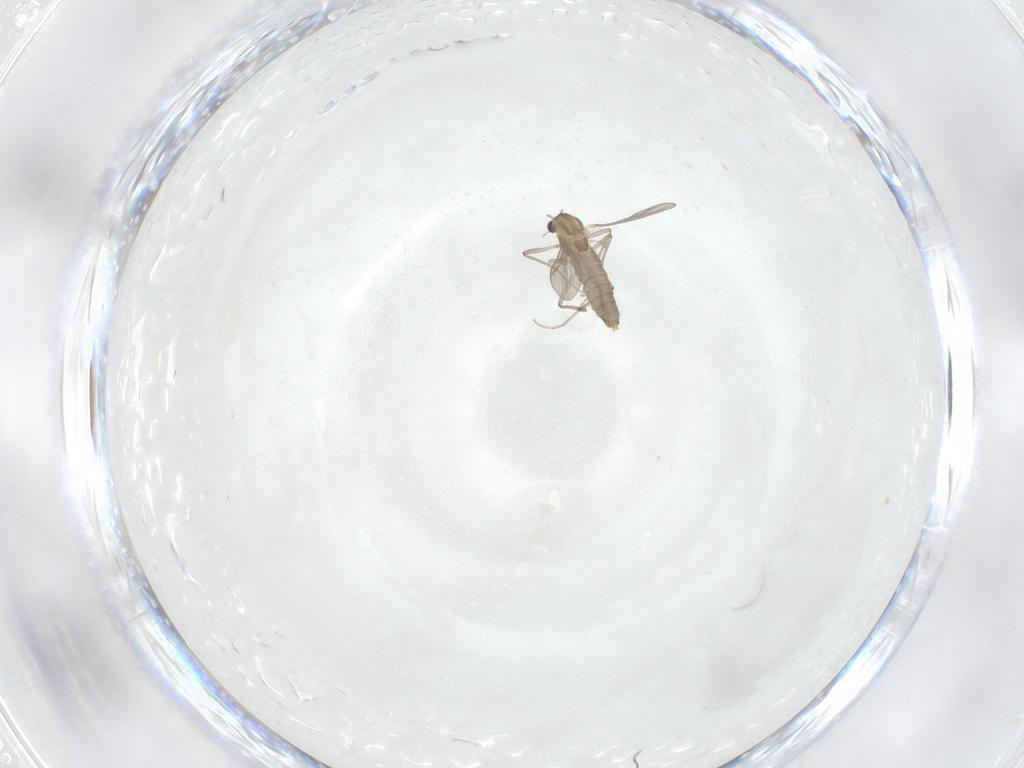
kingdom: Animalia
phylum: Arthropoda
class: Insecta
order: Diptera
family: Chironomidae
